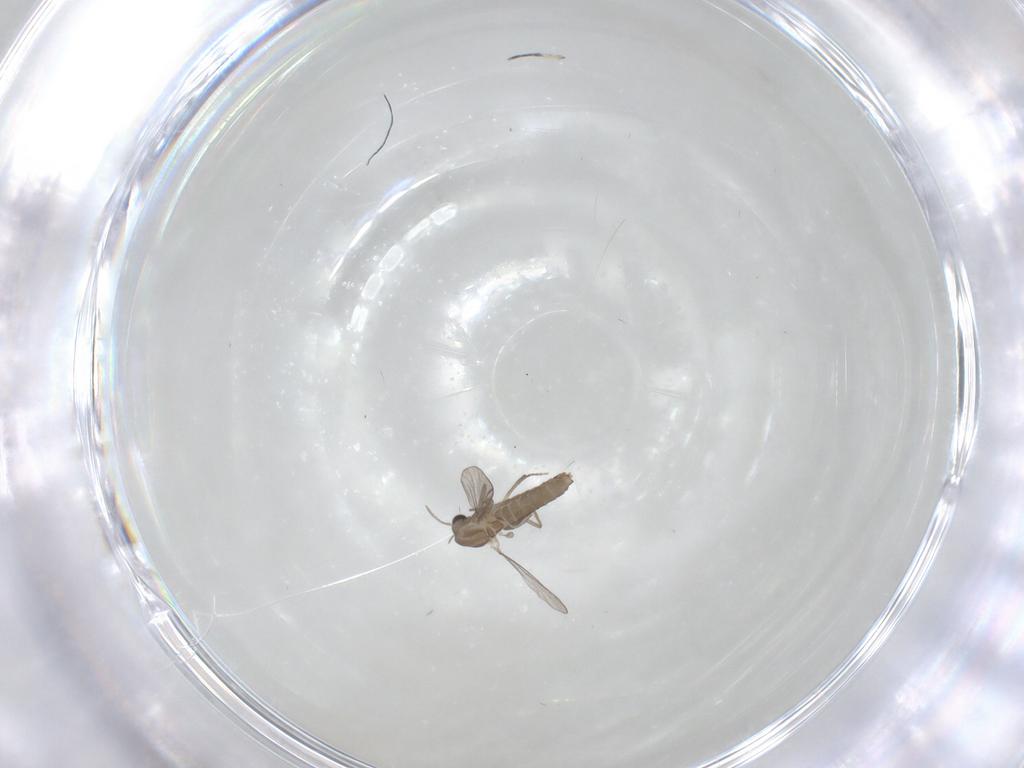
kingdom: Animalia
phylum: Arthropoda
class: Insecta
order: Diptera
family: Chironomidae
